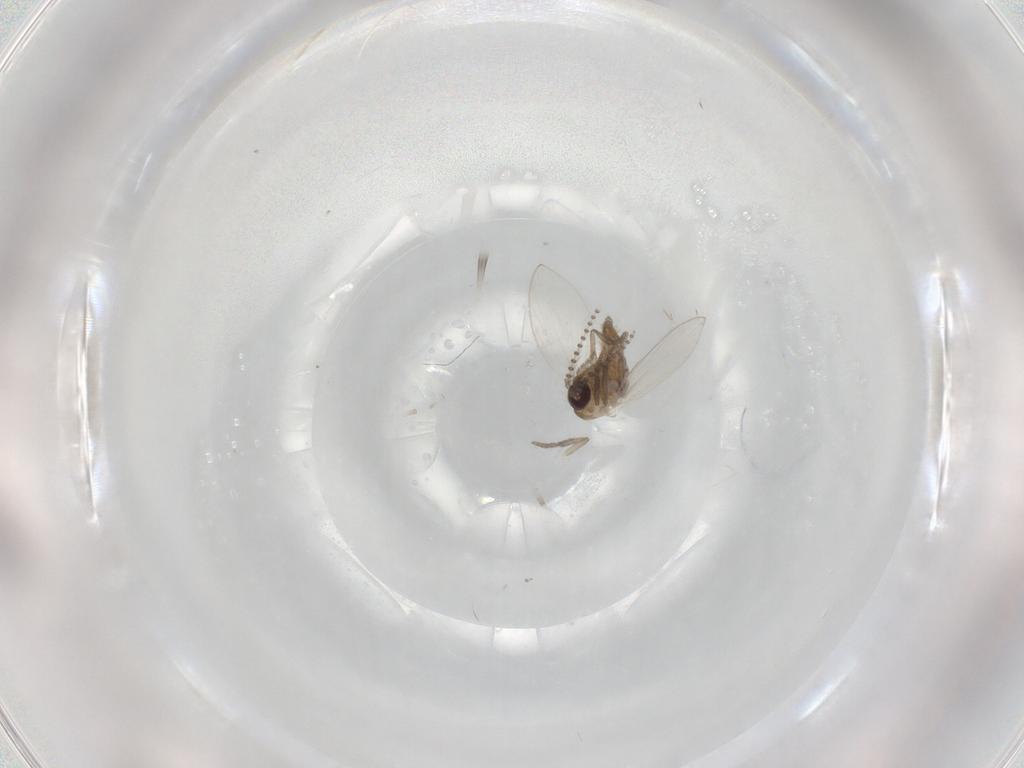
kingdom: Animalia
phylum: Arthropoda
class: Insecta
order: Diptera
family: Psychodidae
